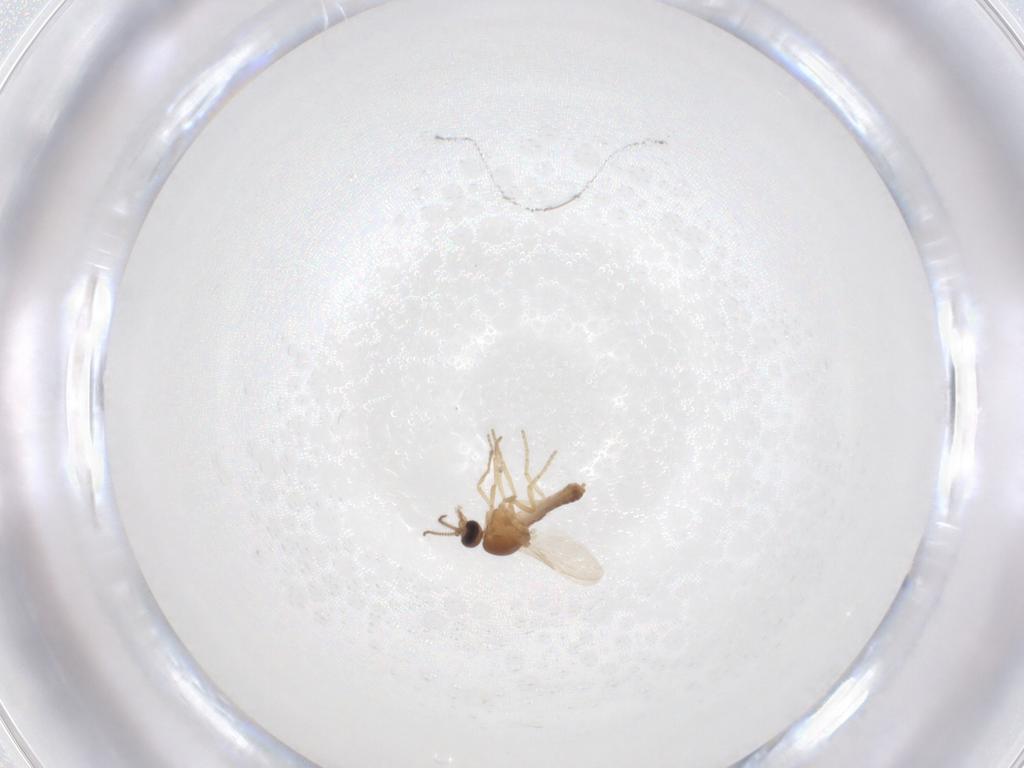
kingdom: Animalia
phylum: Arthropoda
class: Insecta
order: Diptera
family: Ceratopogonidae
